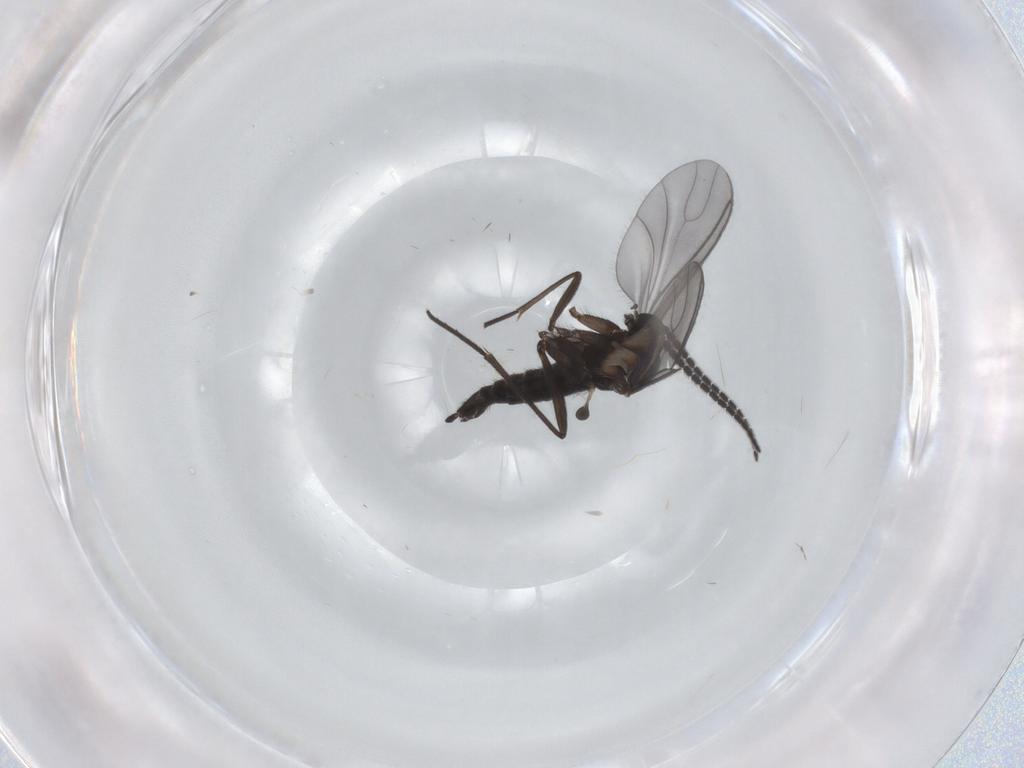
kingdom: Animalia
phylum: Arthropoda
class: Insecta
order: Diptera
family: Sciaridae
